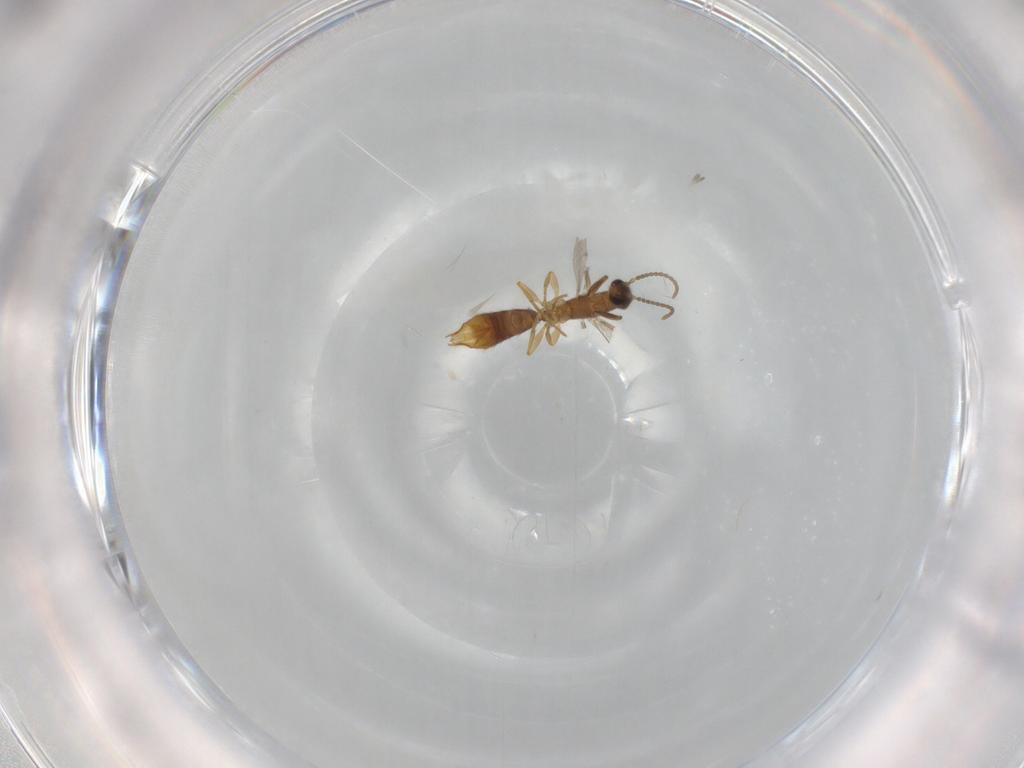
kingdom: Animalia
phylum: Arthropoda
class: Insecta
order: Hymenoptera
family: Formicidae
